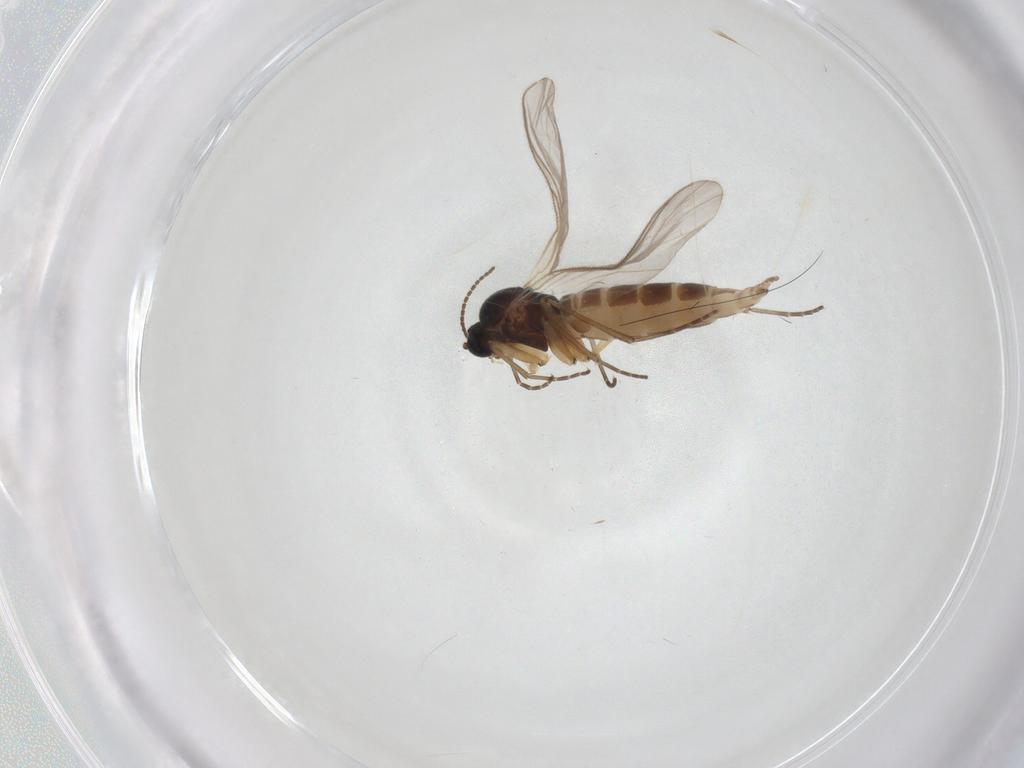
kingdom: Animalia
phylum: Arthropoda
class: Insecta
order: Diptera
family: Sciaridae
